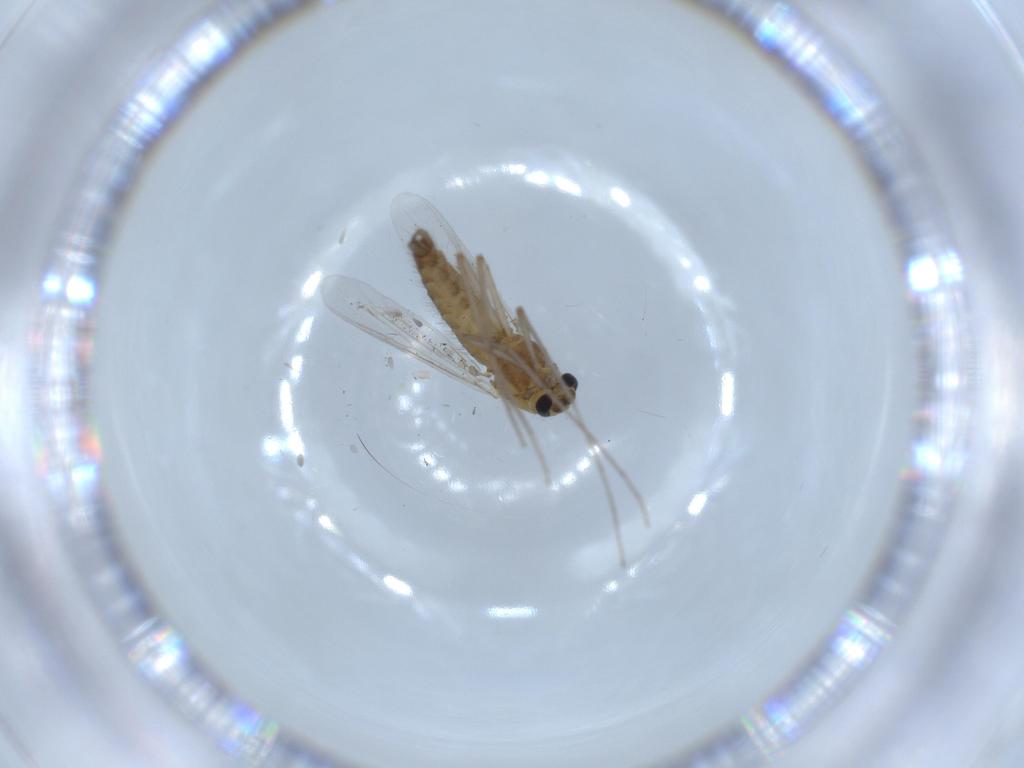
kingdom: Animalia
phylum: Arthropoda
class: Insecta
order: Diptera
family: Chironomidae
